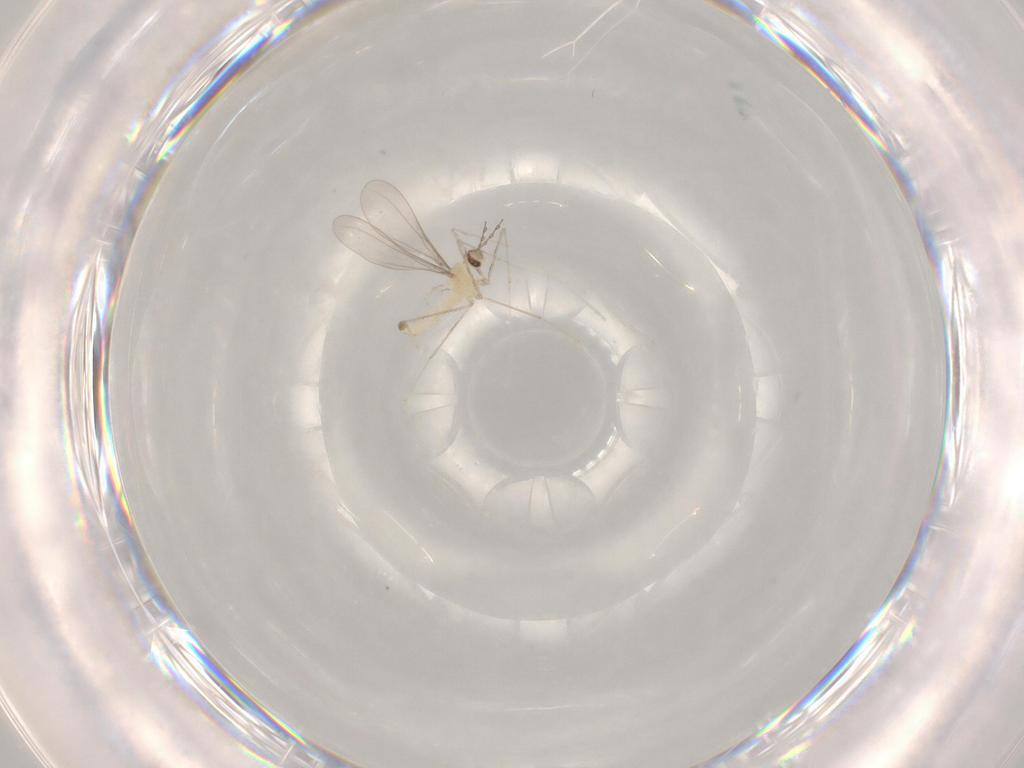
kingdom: Animalia
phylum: Arthropoda
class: Insecta
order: Diptera
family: Cecidomyiidae
